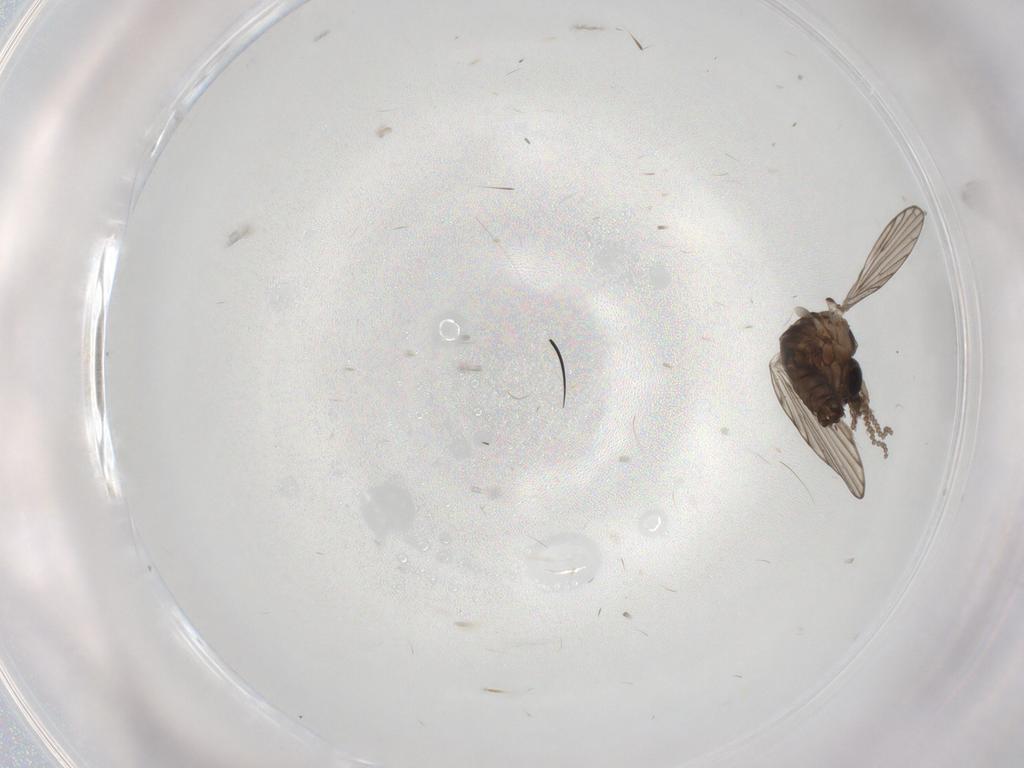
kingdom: Animalia
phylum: Arthropoda
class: Insecta
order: Diptera
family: Psychodidae
